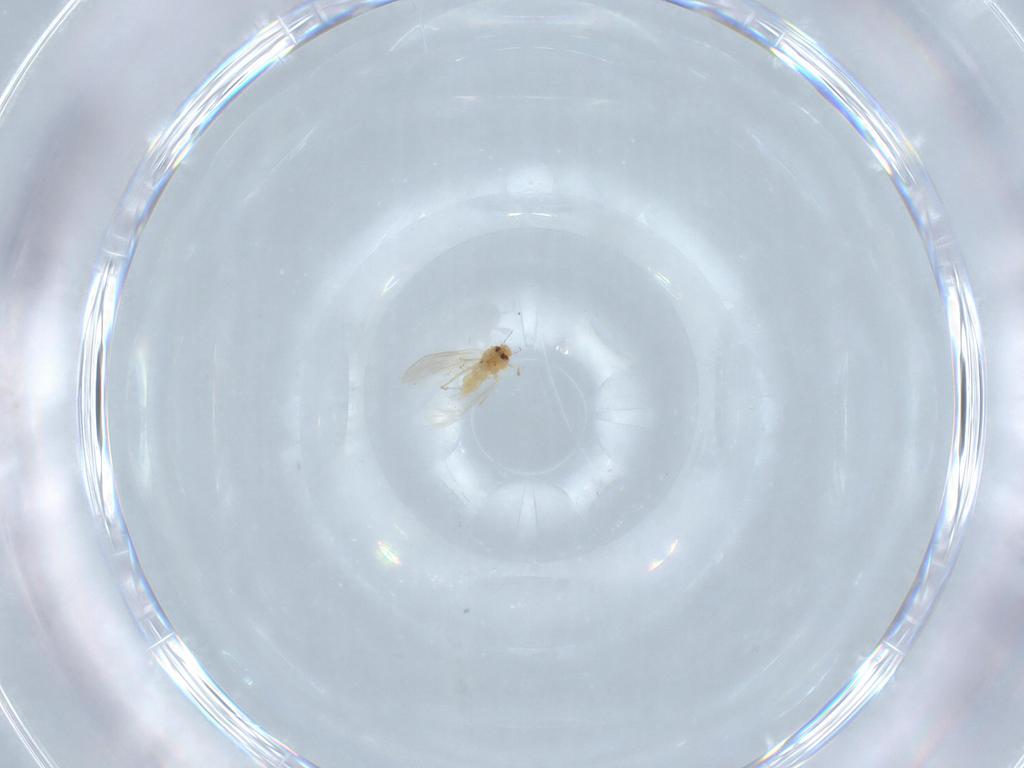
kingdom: Animalia
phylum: Arthropoda
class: Insecta
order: Hemiptera
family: Aleyrodidae
